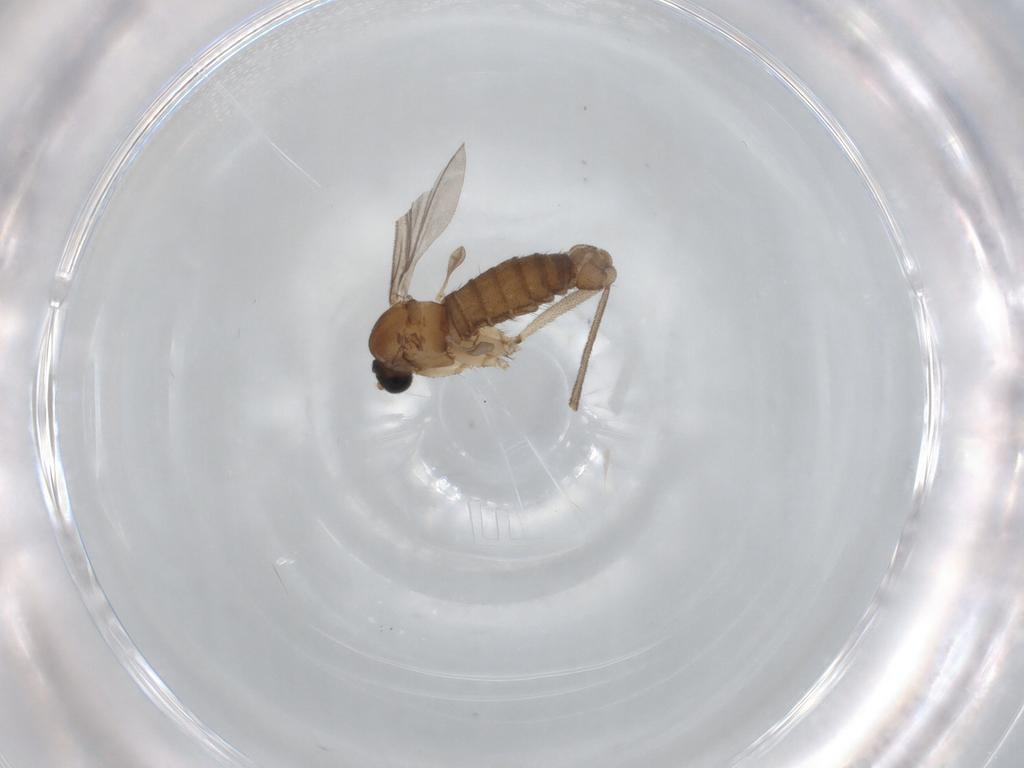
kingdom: Animalia
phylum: Arthropoda
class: Insecta
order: Diptera
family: Sciaridae
